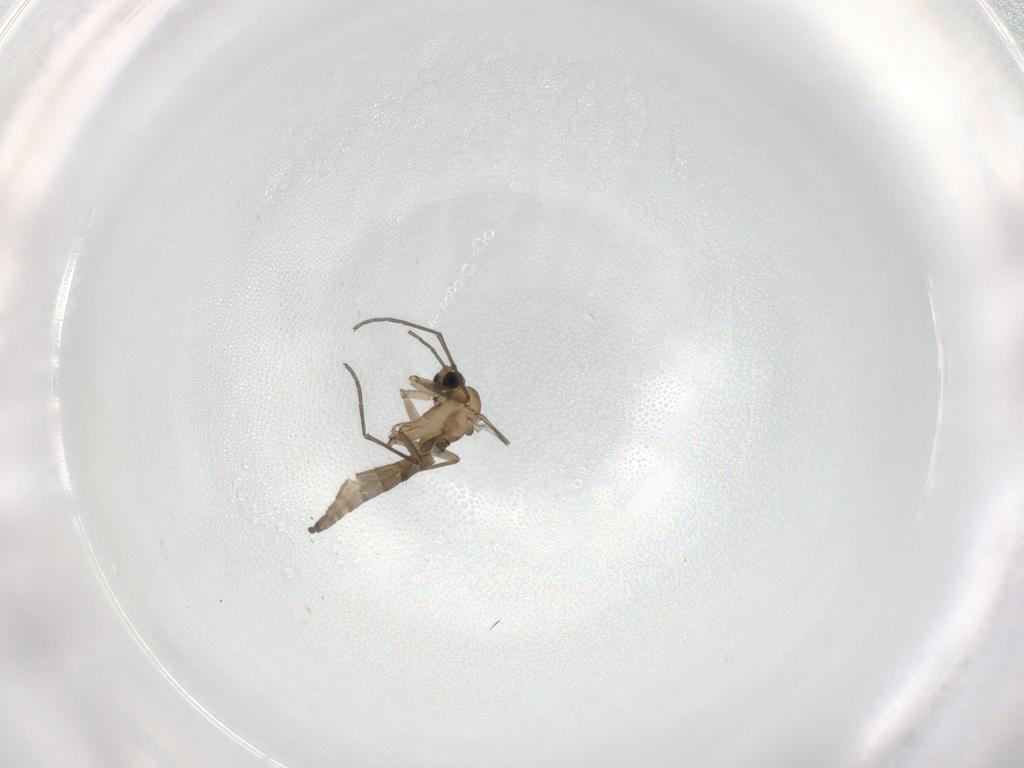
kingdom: Animalia
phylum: Arthropoda
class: Insecta
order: Diptera
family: Sciaridae
